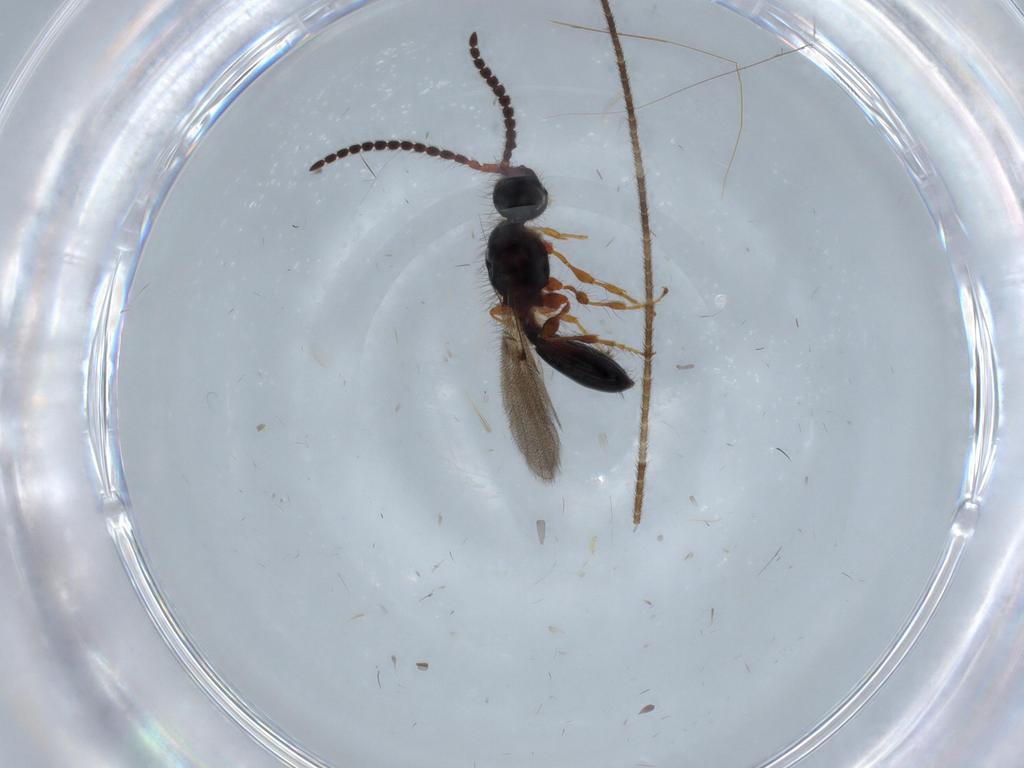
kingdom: Animalia
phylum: Arthropoda
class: Insecta
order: Hymenoptera
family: Diapriidae
